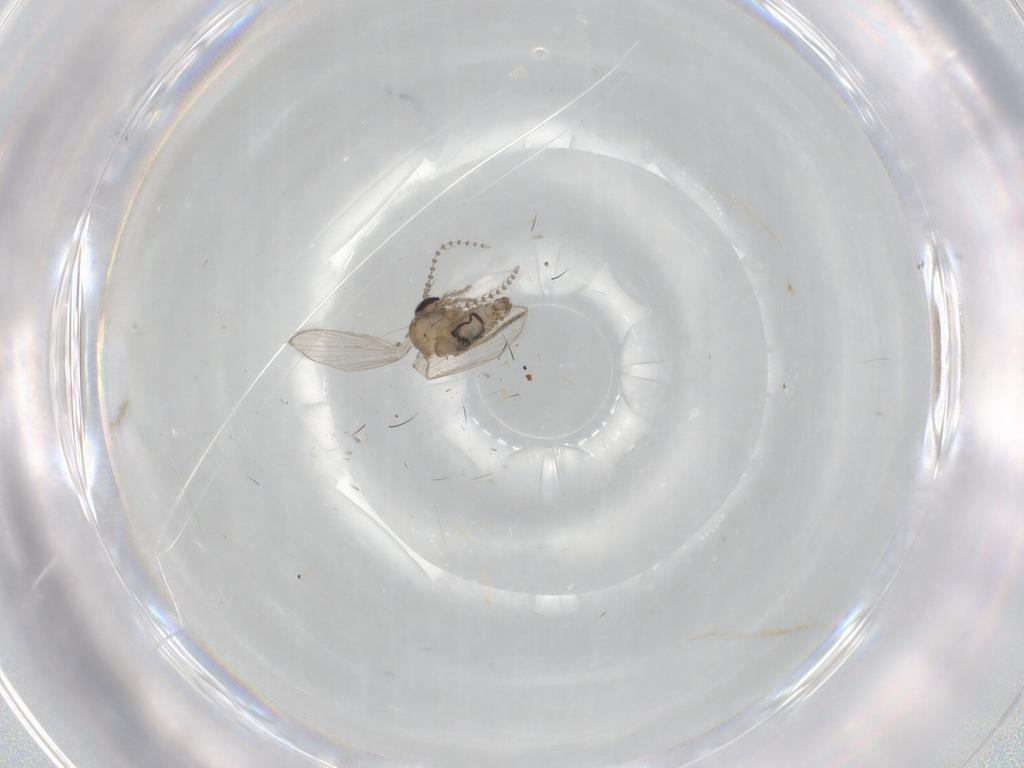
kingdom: Animalia
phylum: Arthropoda
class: Insecta
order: Diptera
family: Psychodidae
